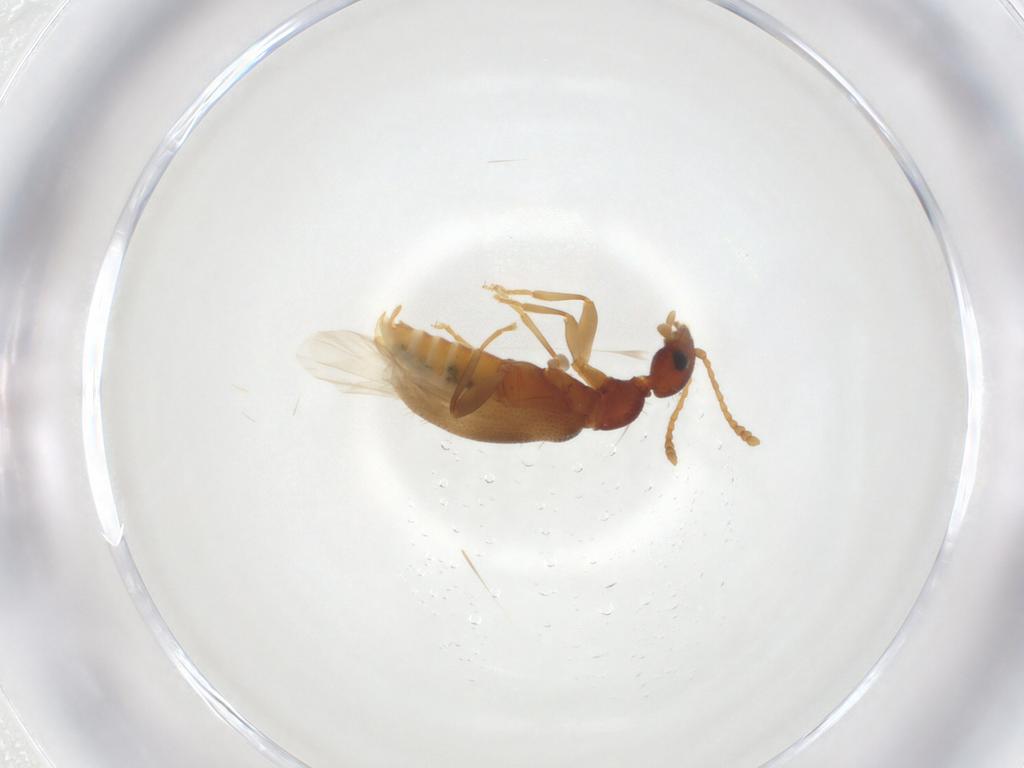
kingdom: Animalia
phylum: Arthropoda
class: Insecta
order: Coleoptera
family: Anthicidae
